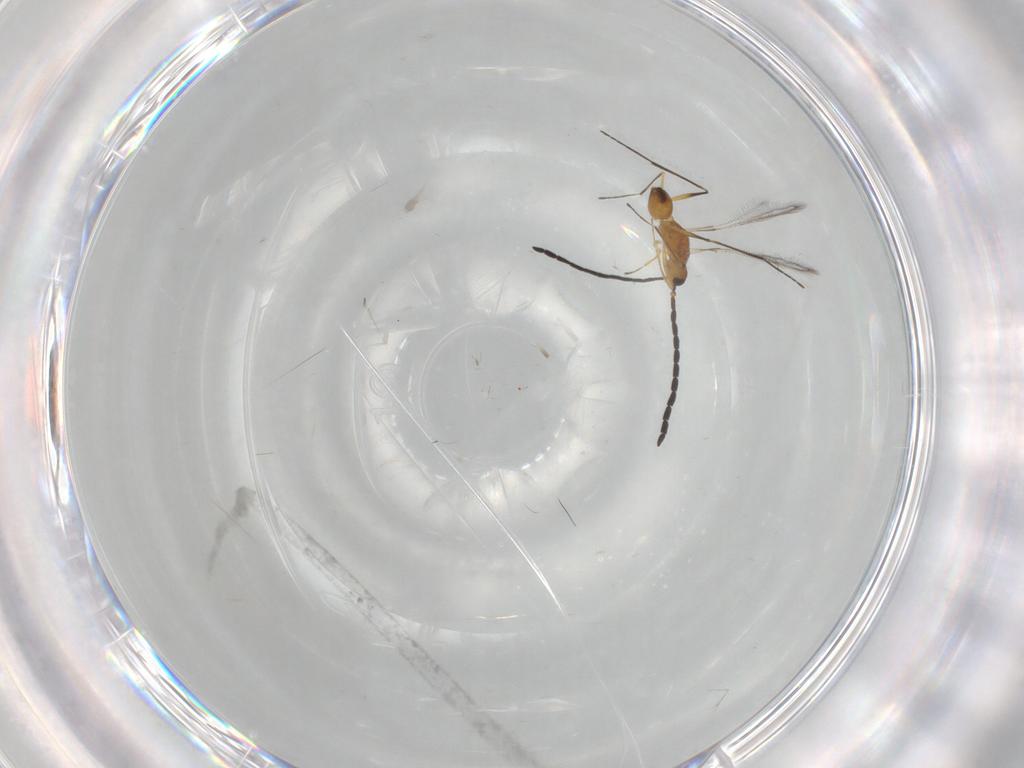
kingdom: Animalia
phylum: Arthropoda
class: Insecta
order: Hymenoptera
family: Mymaridae
